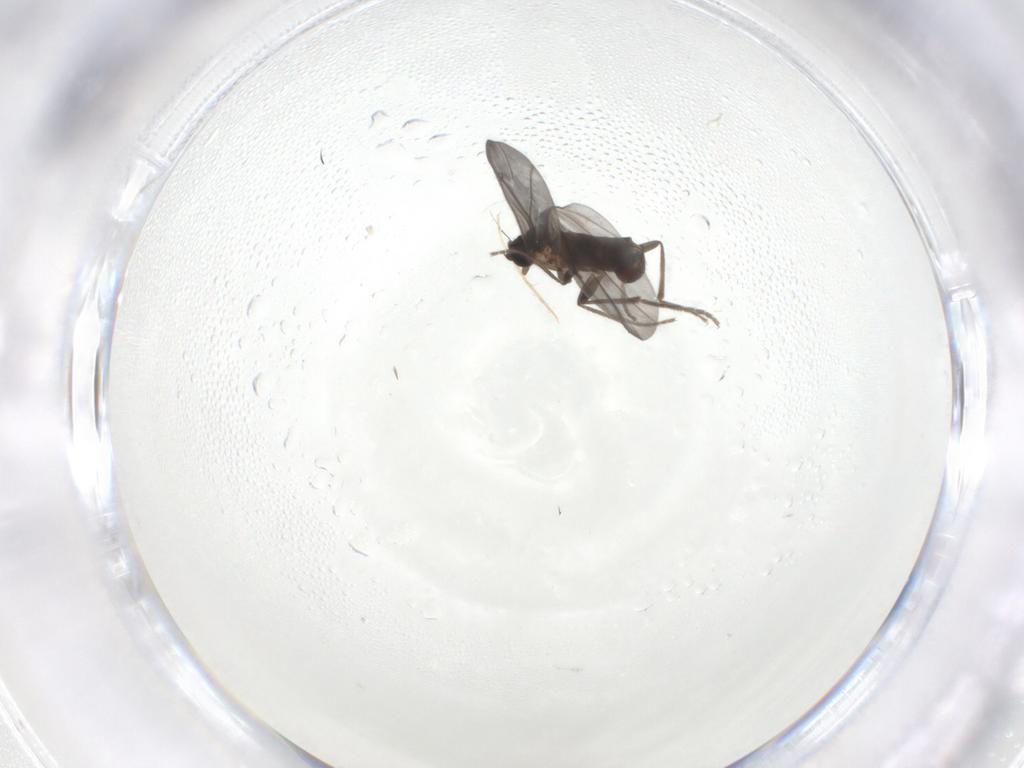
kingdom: Animalia
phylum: Arthropoda
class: Insecta
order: Diptera
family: Phoridae
